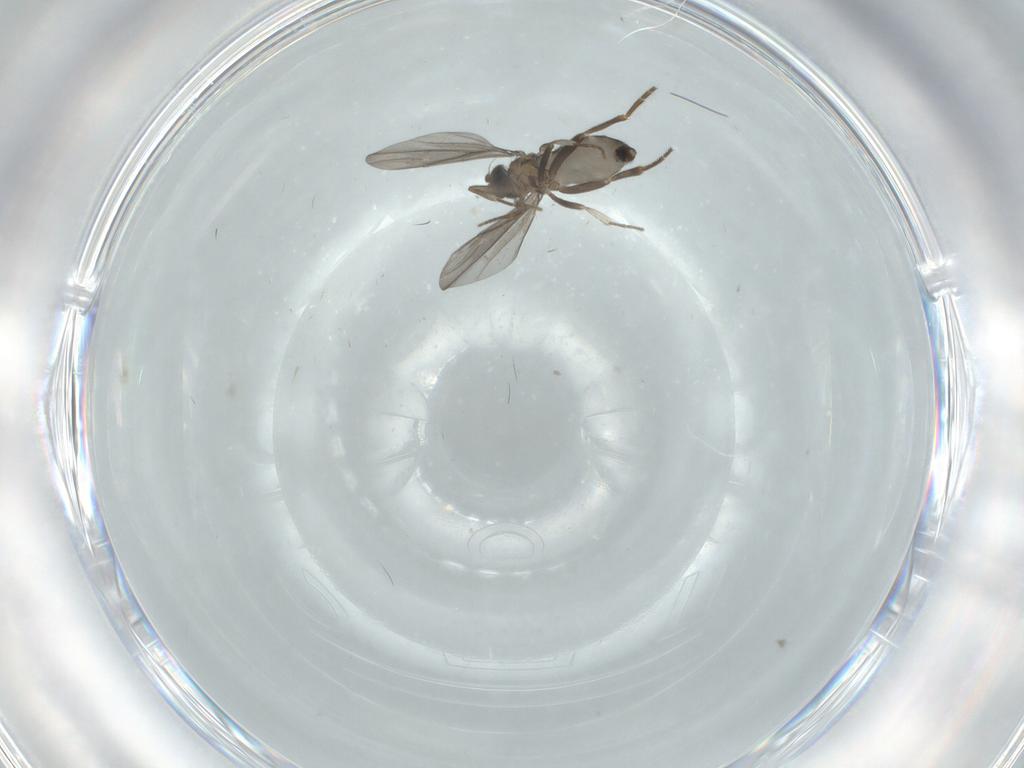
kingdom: Animalia
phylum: Arthropoda
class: Insecta
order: Diptera
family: Phoridae
